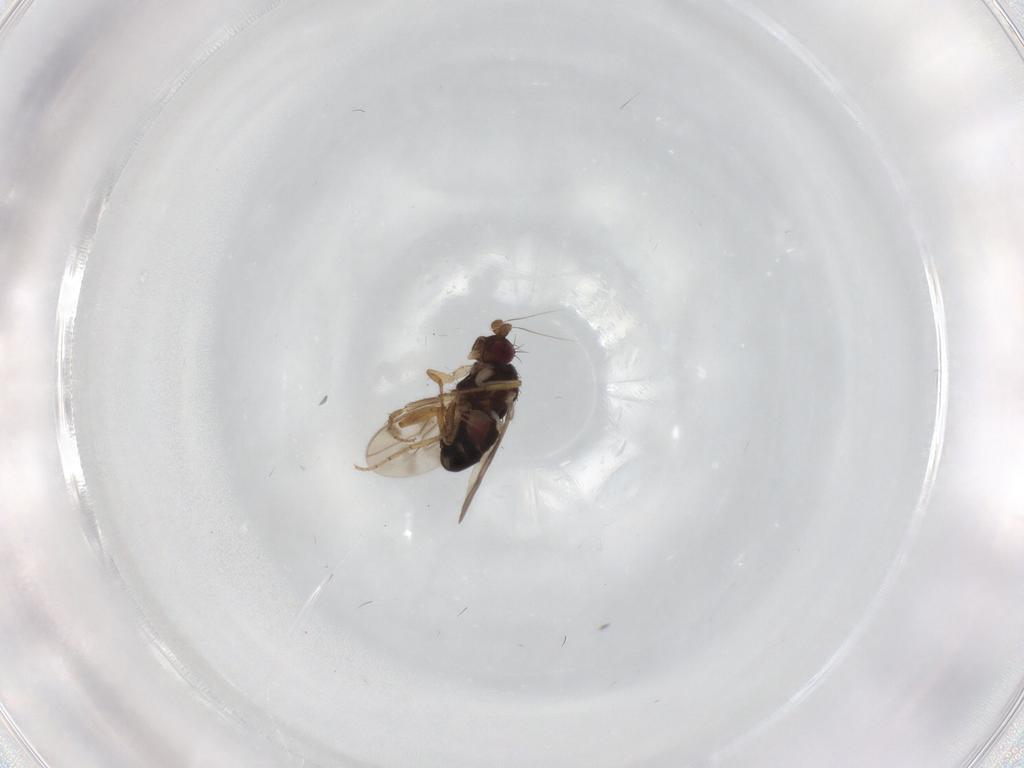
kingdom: Animalia
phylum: Arthropoda
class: Insecta
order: Diptera
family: Sphaeroceridae
